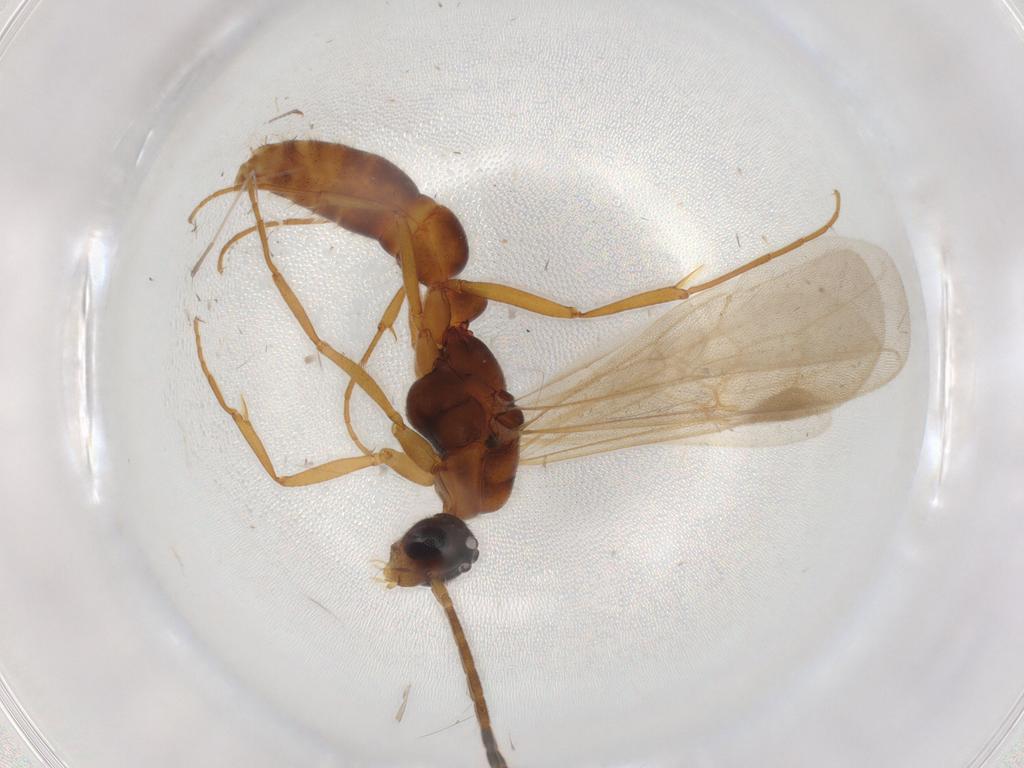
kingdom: Animalia
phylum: Arthropoda
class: Insecta
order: Hymenoptera
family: Formicidae
